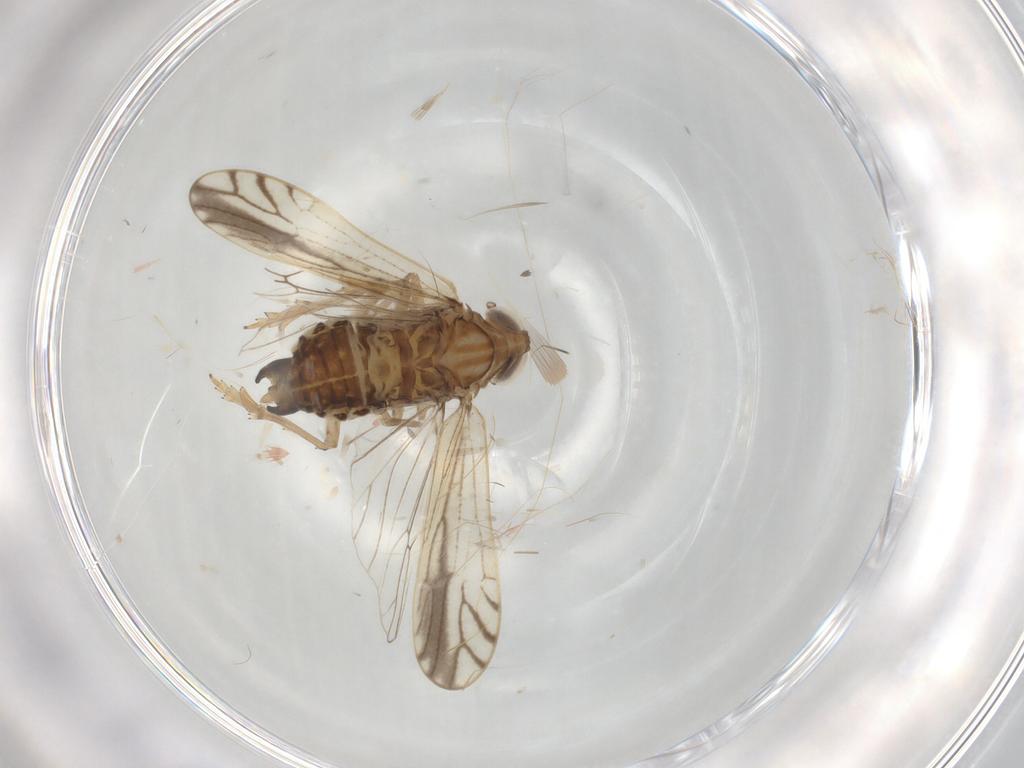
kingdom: Animalia
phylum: Arthropoda
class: Insecta
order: Hemiptera
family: Delphacidae
